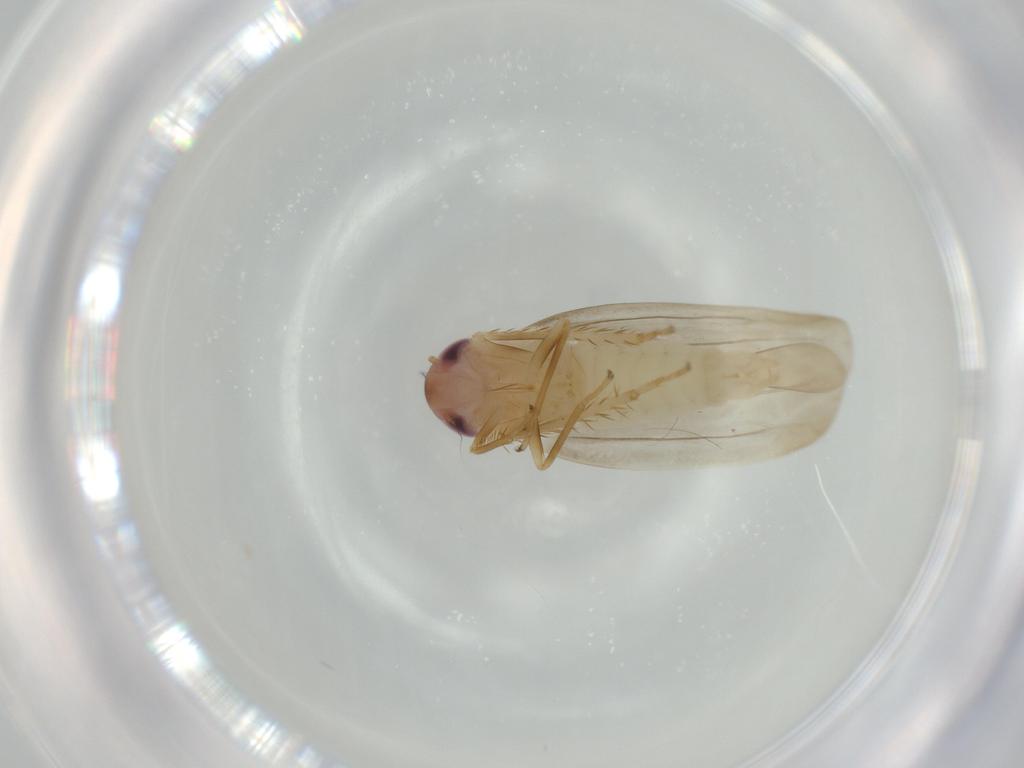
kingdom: Animalia
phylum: Arthropoda
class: Insecta
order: Hemiptera
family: Cicadellidae
